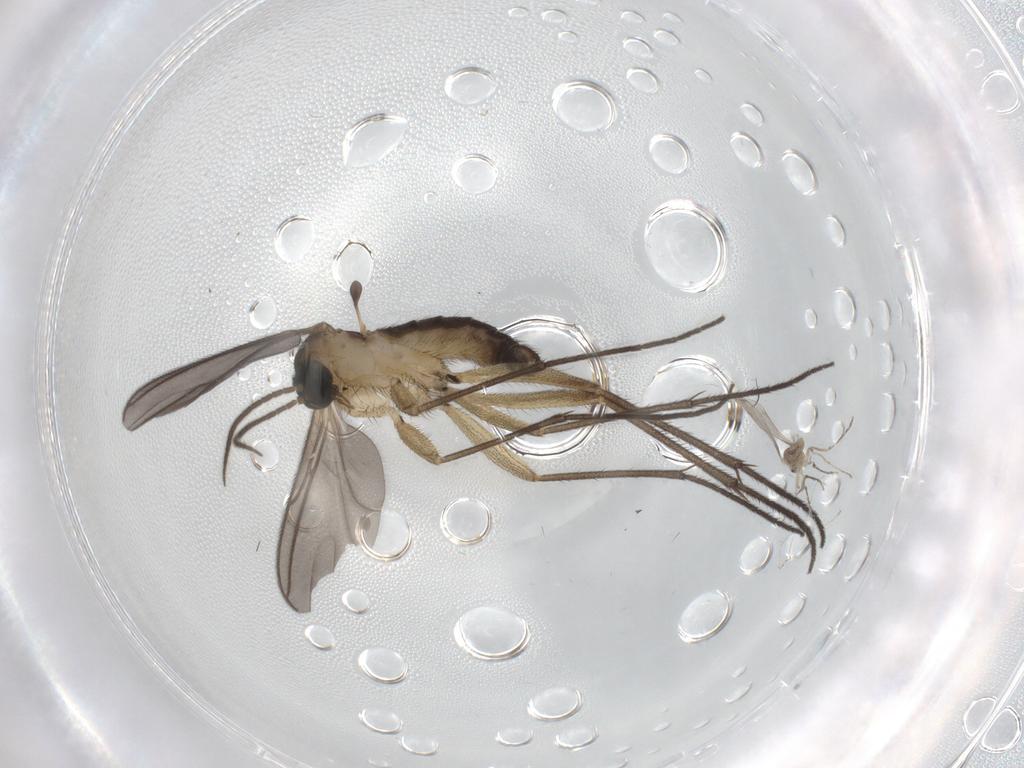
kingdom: Animalia
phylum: Arthropoda
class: Insecta
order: Diptera
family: Sciaridae
